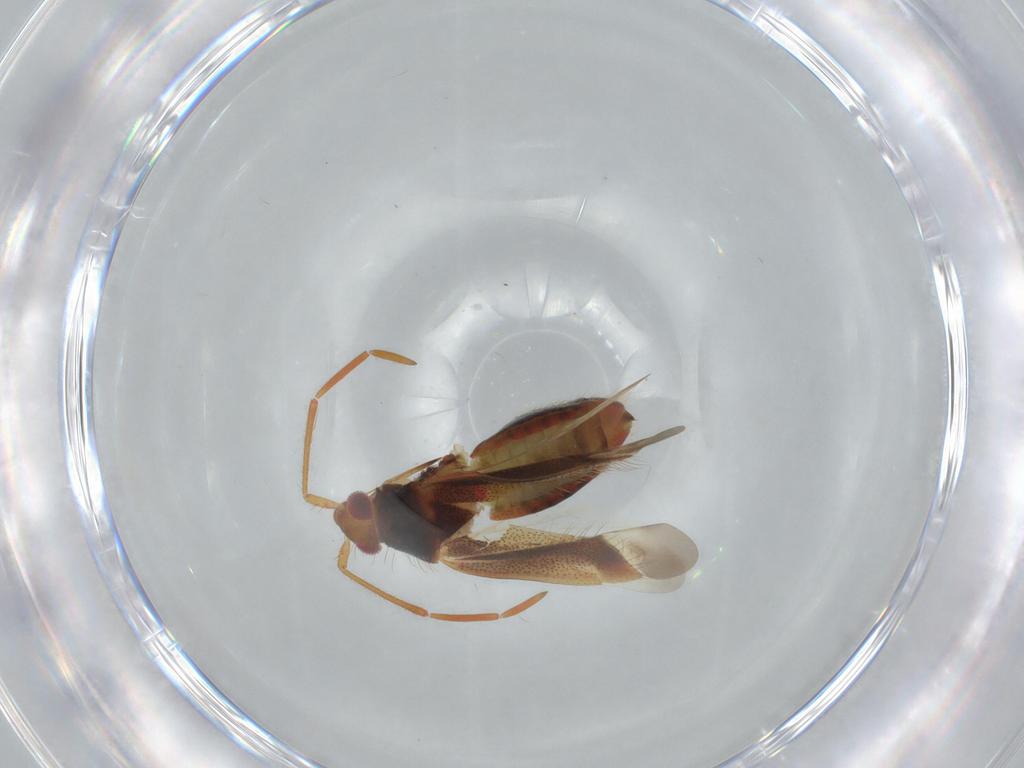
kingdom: Animalia
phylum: Arthropoda
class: Insecta
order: Hemiptera
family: Miridae
